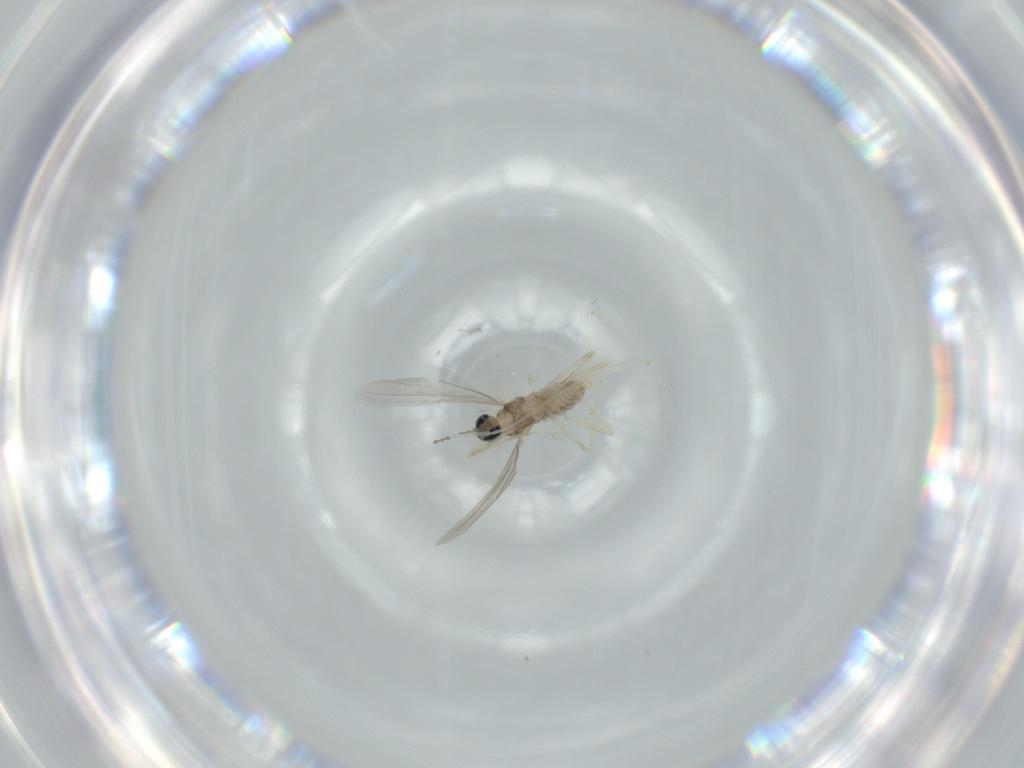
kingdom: Animalia
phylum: Arthropoda
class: Insecta
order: Diptera
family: Cecidomyiidae
